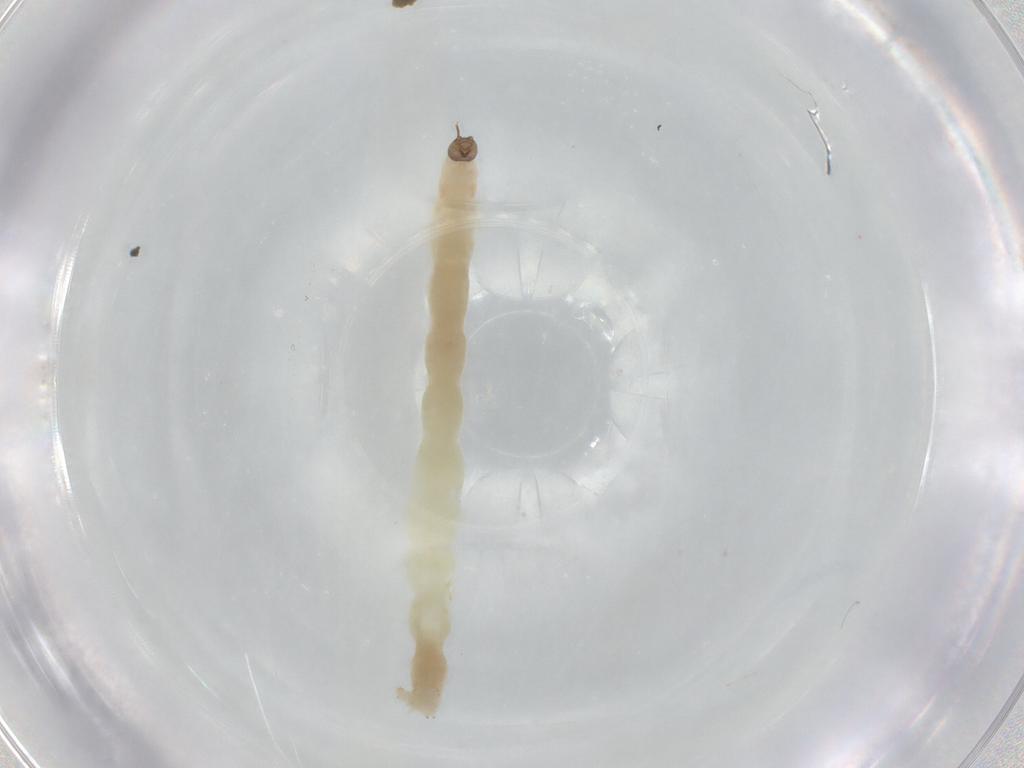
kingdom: Animalia
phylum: Arthropoda
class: Insecta
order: Diptera
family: Chironomidae
